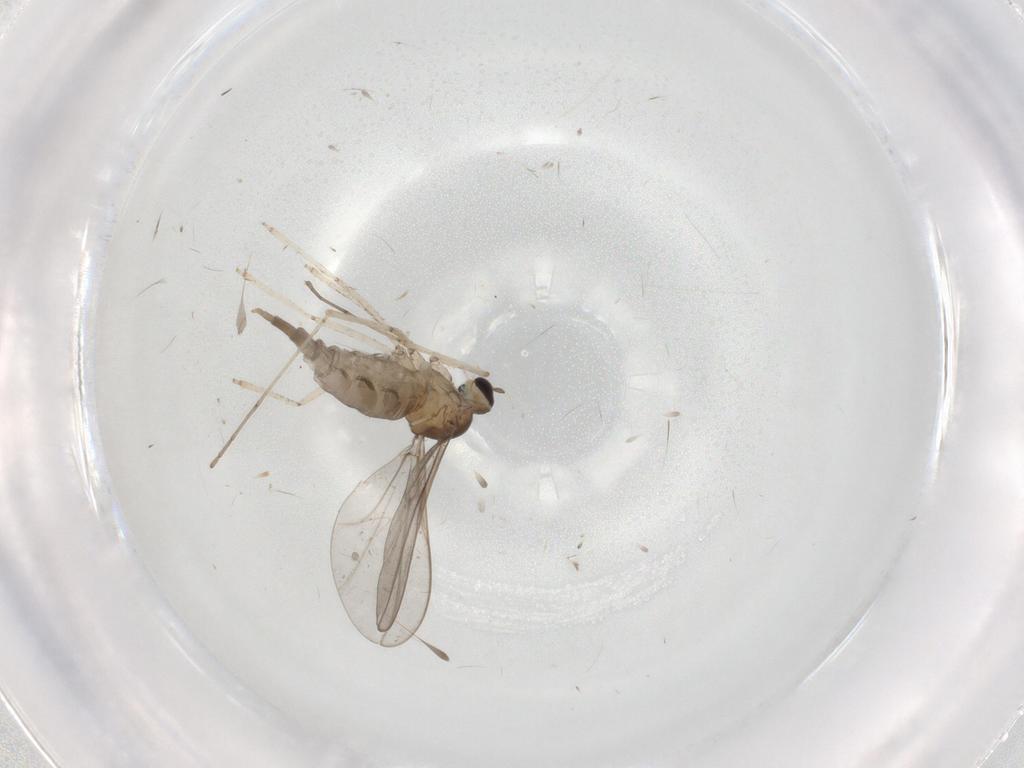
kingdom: Animalia
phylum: Arthropoda
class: Insecta
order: Diptera
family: Cecidomyiidae
